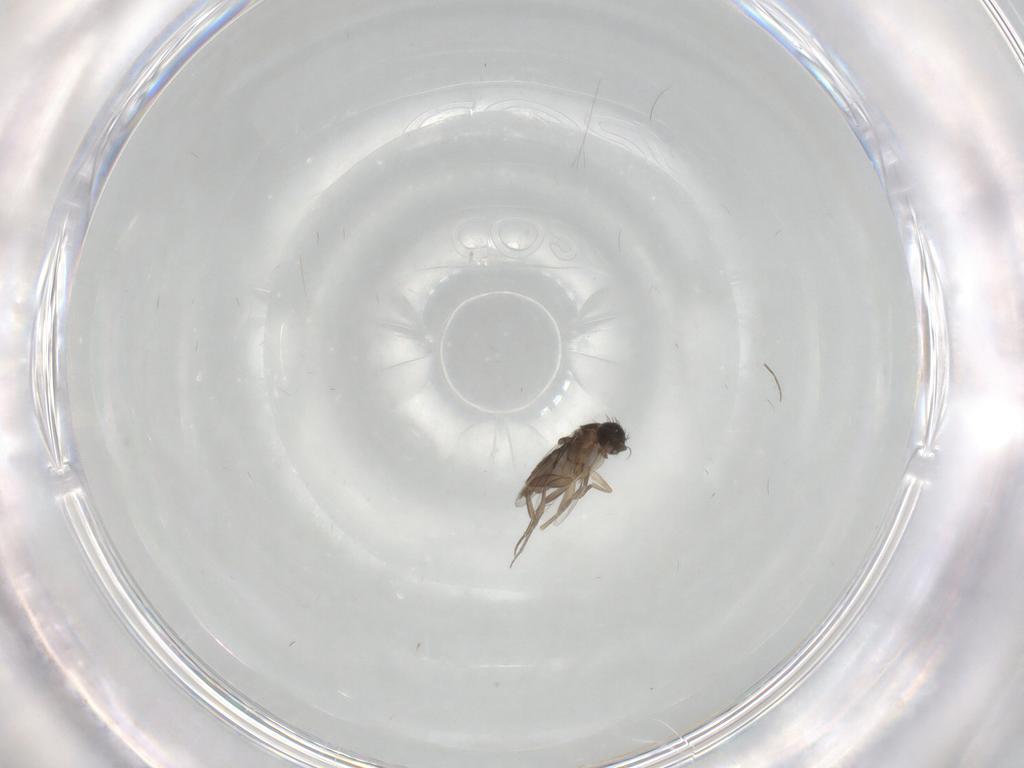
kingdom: Animalia
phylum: Arthropoda
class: Insecta
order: Diptera
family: Phoridae
